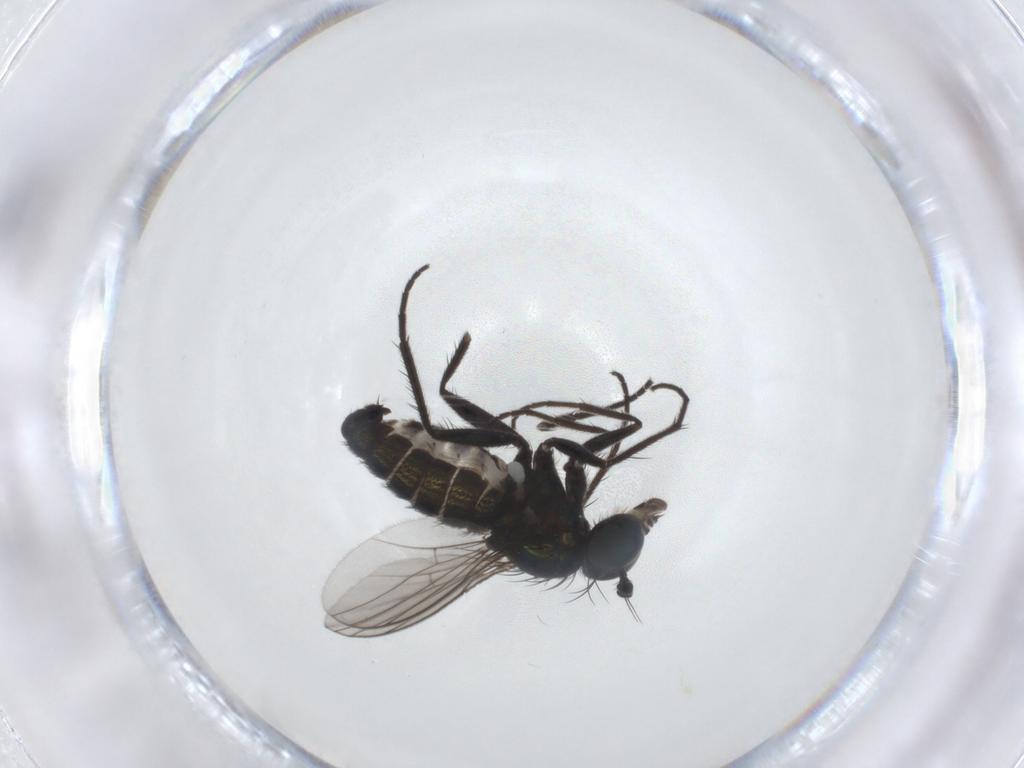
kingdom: Animalia
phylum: Arthropoda
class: Insecta
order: Diptera
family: Dolichopodidae
